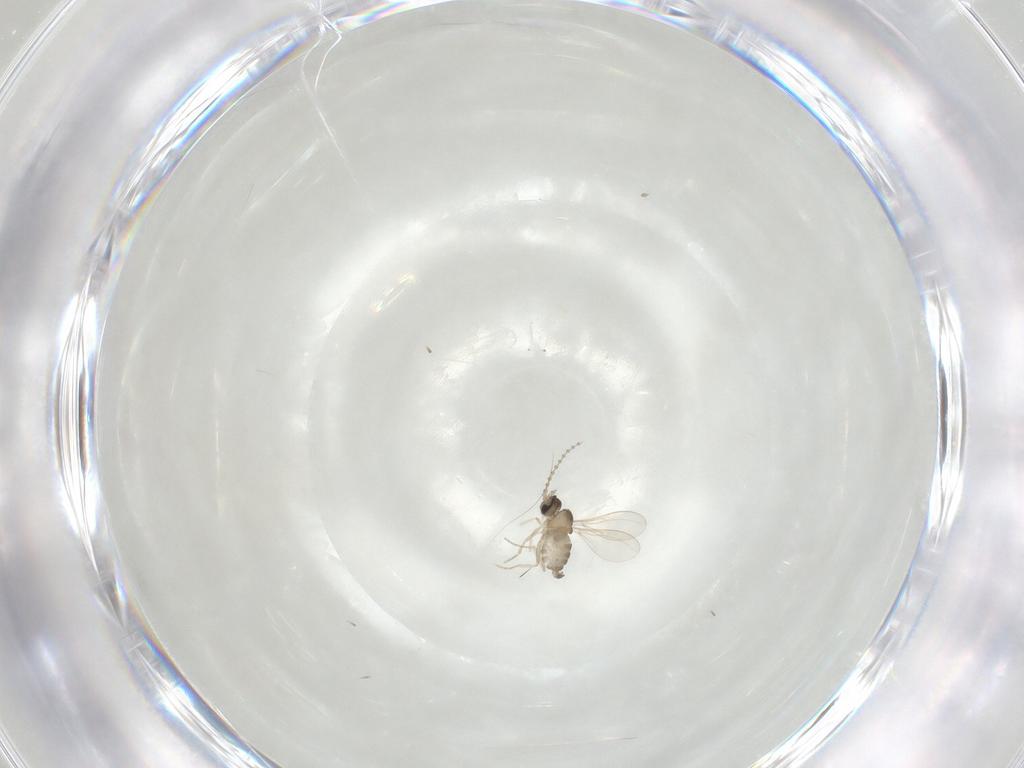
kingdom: Animalia
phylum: Arthropoda
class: Insecta
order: Diptera
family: Cecidomyiidae
